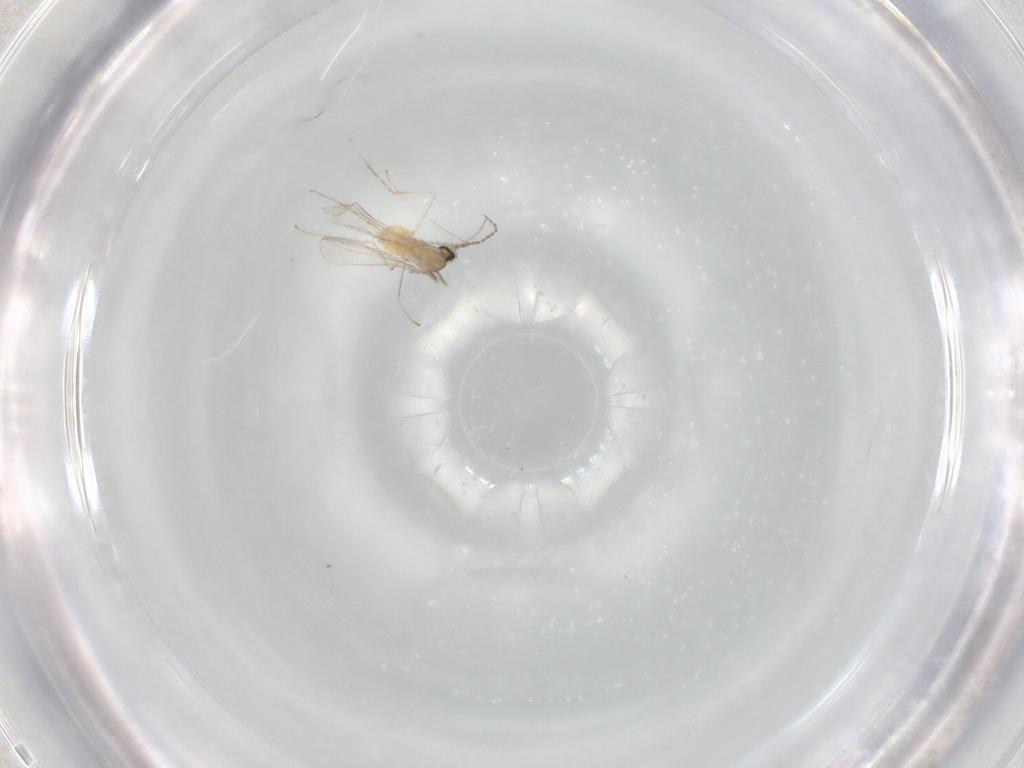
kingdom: Animalia
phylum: Arthropoda
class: Insecta
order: Diptera
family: Cecidomyiidae
